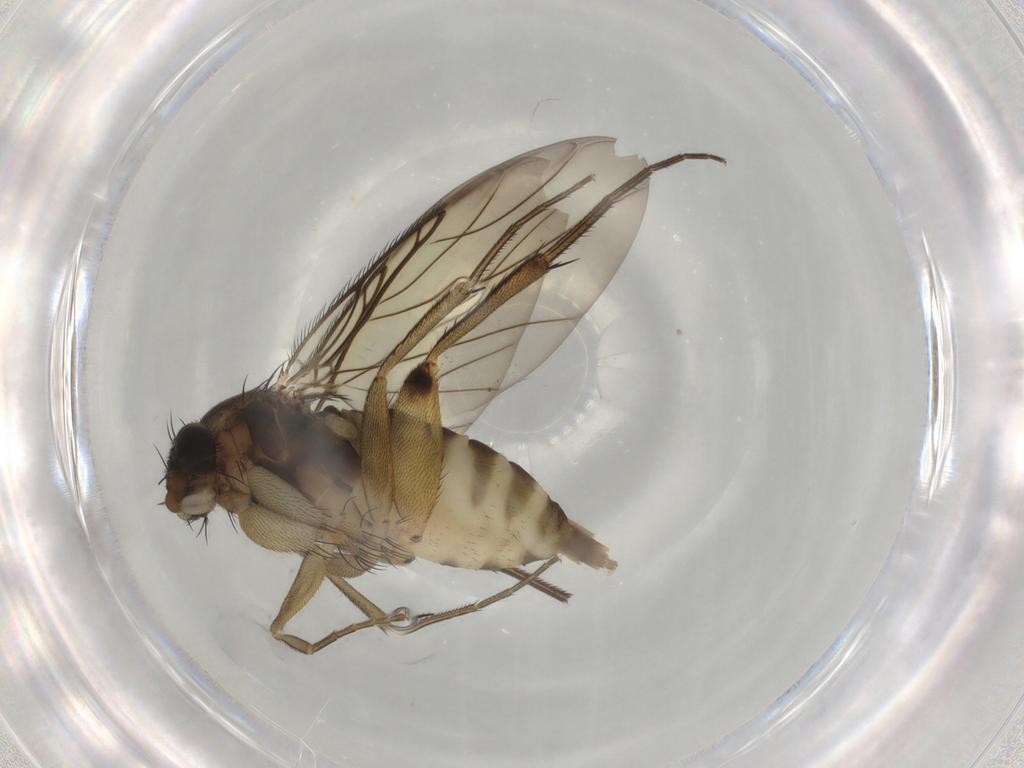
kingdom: Animalia
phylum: Arthropoda
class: Insecta
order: Diptera
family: Phoridae
